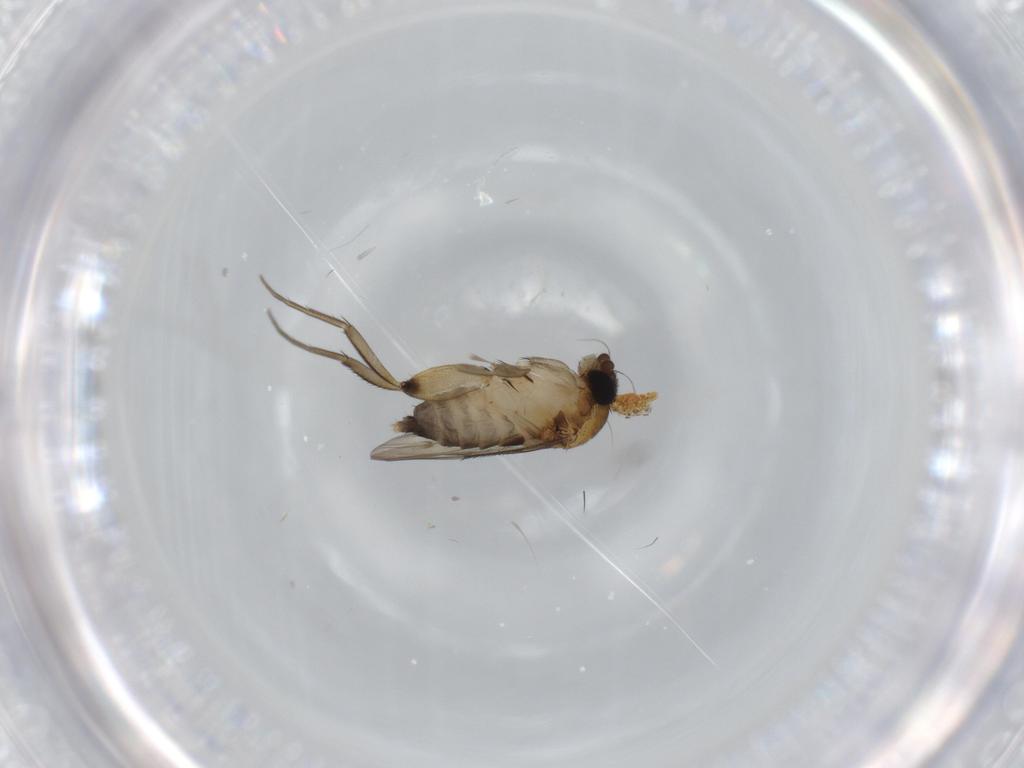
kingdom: Animalia
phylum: Arthropoda
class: Insecta
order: Diptera
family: Phoridae
